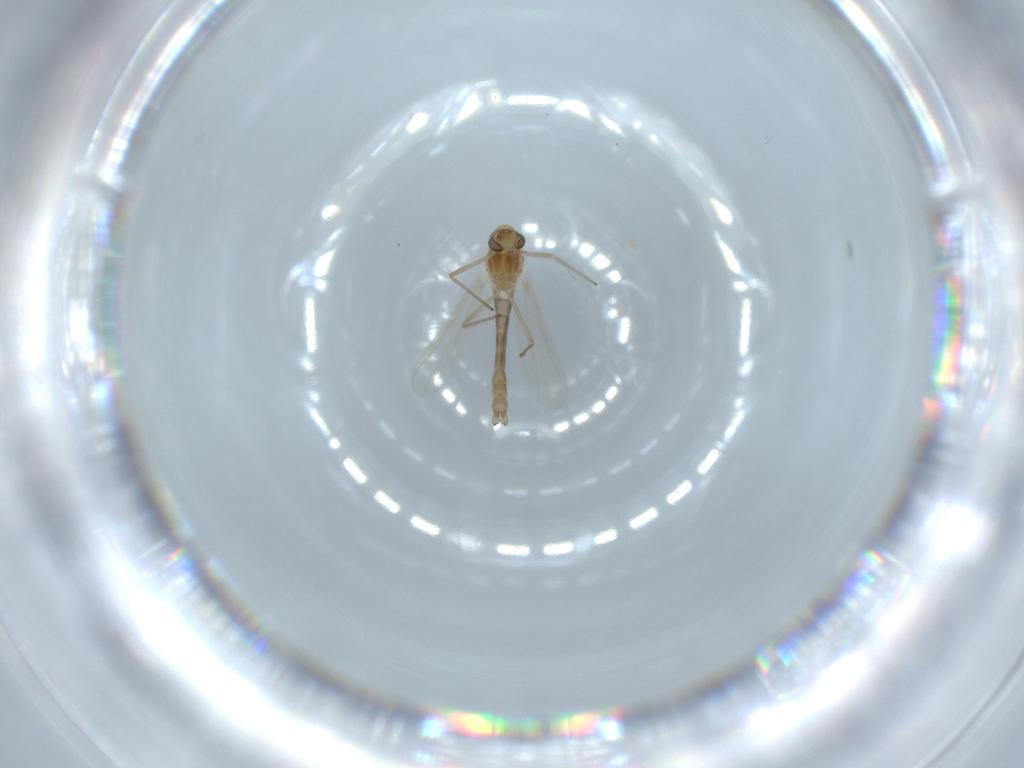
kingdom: Animalia
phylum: Arthropoda
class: Insecta
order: Diptera
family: Chironomidae
